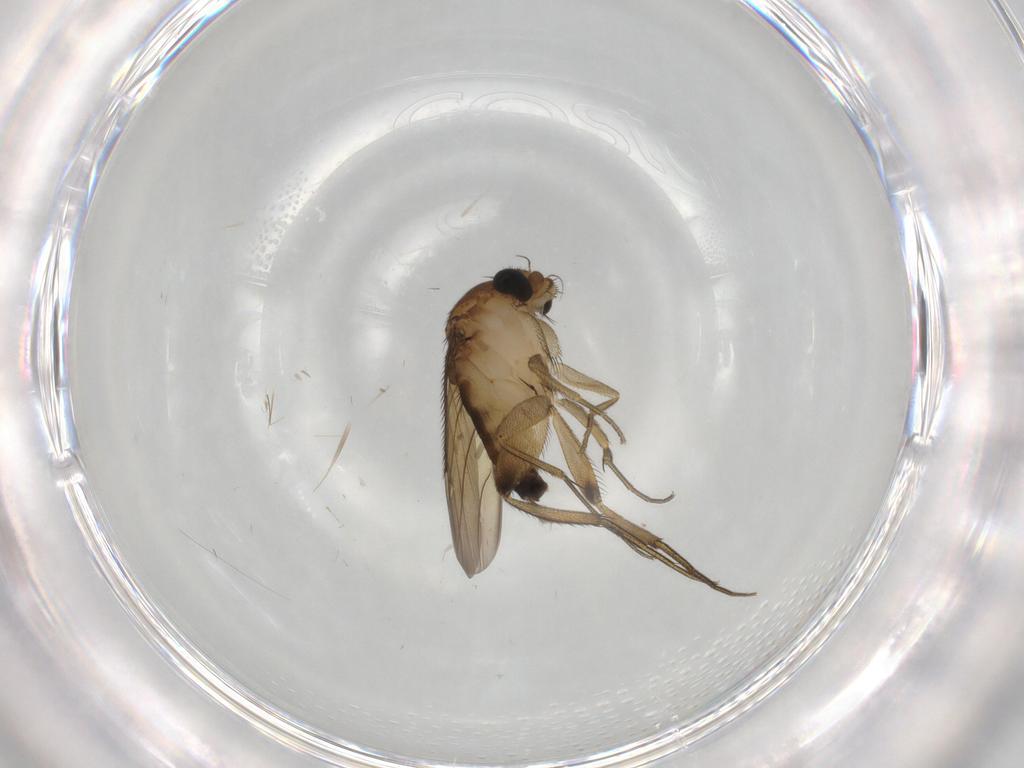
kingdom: Animalia
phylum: Arthropoda
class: Insecta
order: Diptera
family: Phoridae
